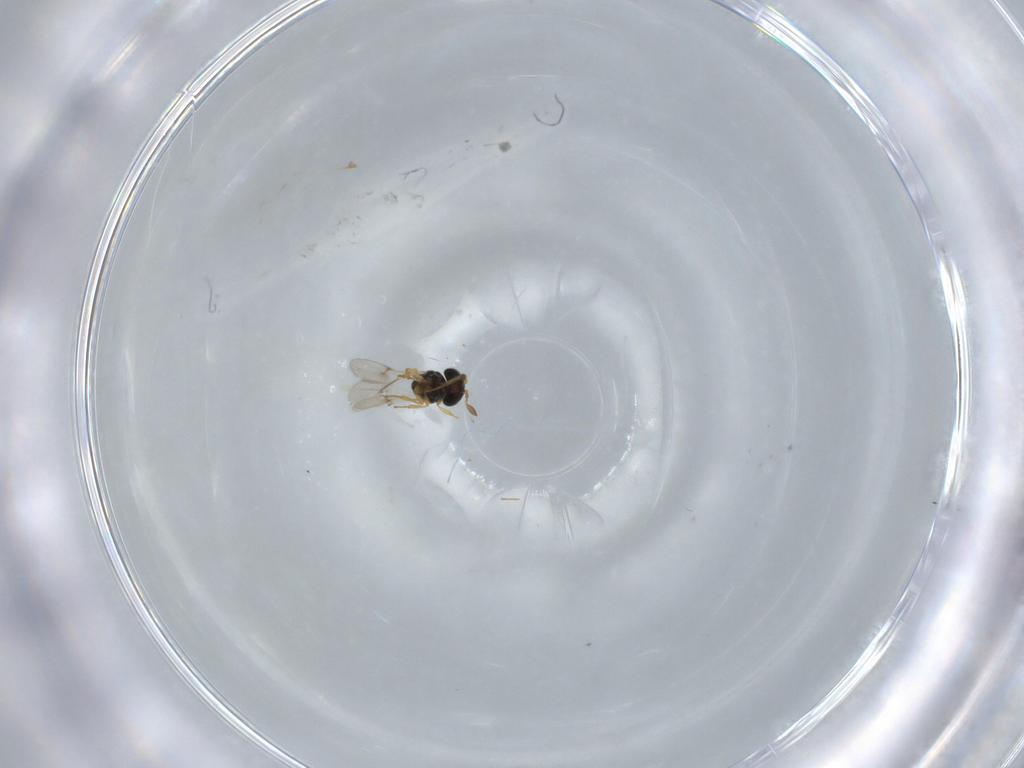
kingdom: Animalia
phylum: Arthropoda
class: Insecta
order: Hymenoptera
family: Scelionidae
